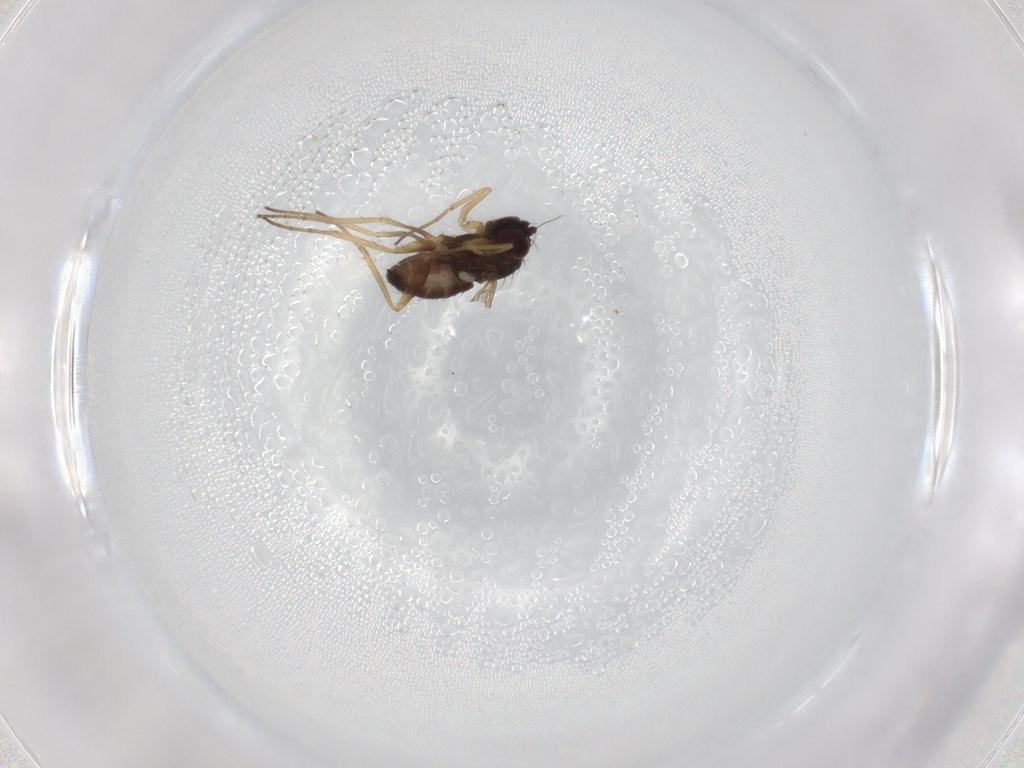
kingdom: Animalia
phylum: Arthropoda
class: Insecta
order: Diptera
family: Dolichopodidae
